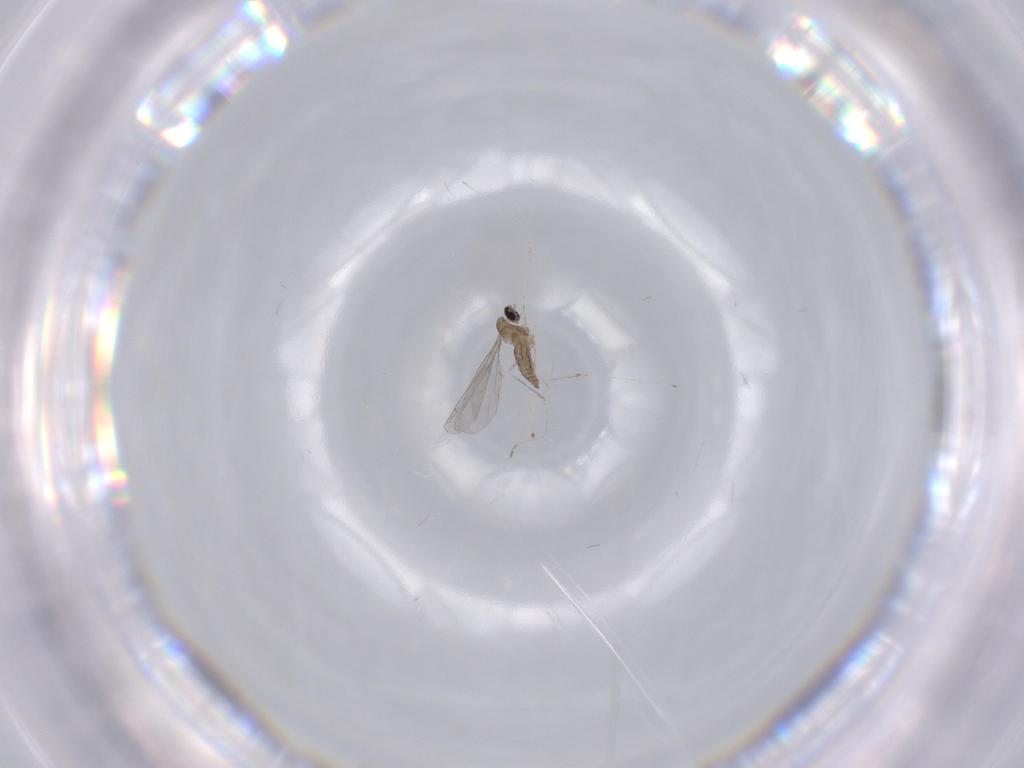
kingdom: Animalia
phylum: Arthropoda
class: Insecta
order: Diptera
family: Cecidomyiidae
